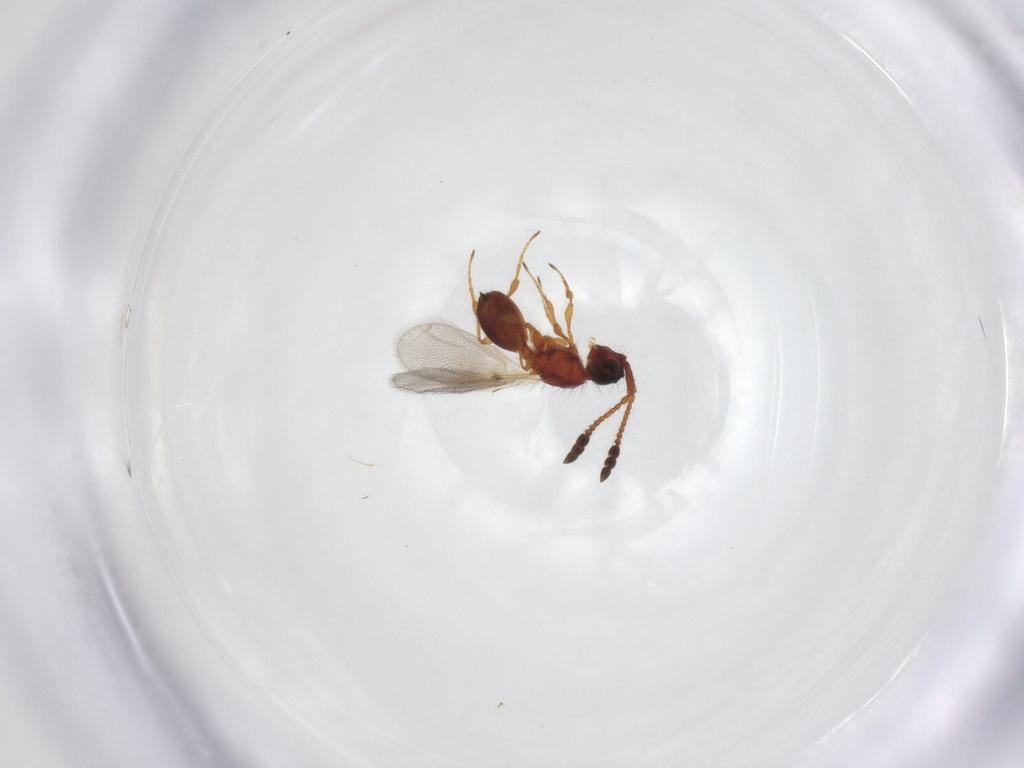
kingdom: Animalia
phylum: Arthropoda
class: Insecta
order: Hymenoptera
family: Diapriidae
